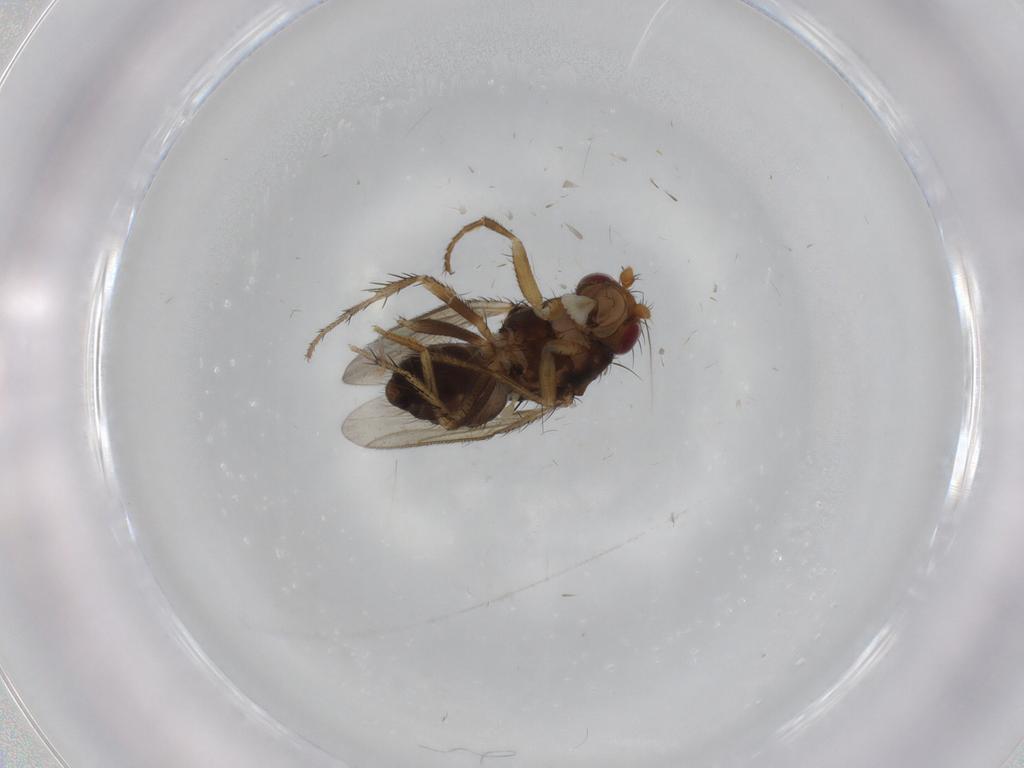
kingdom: Animalia
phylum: Arthropoda
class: Insecta
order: Diptera
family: Sphaeroceridae
